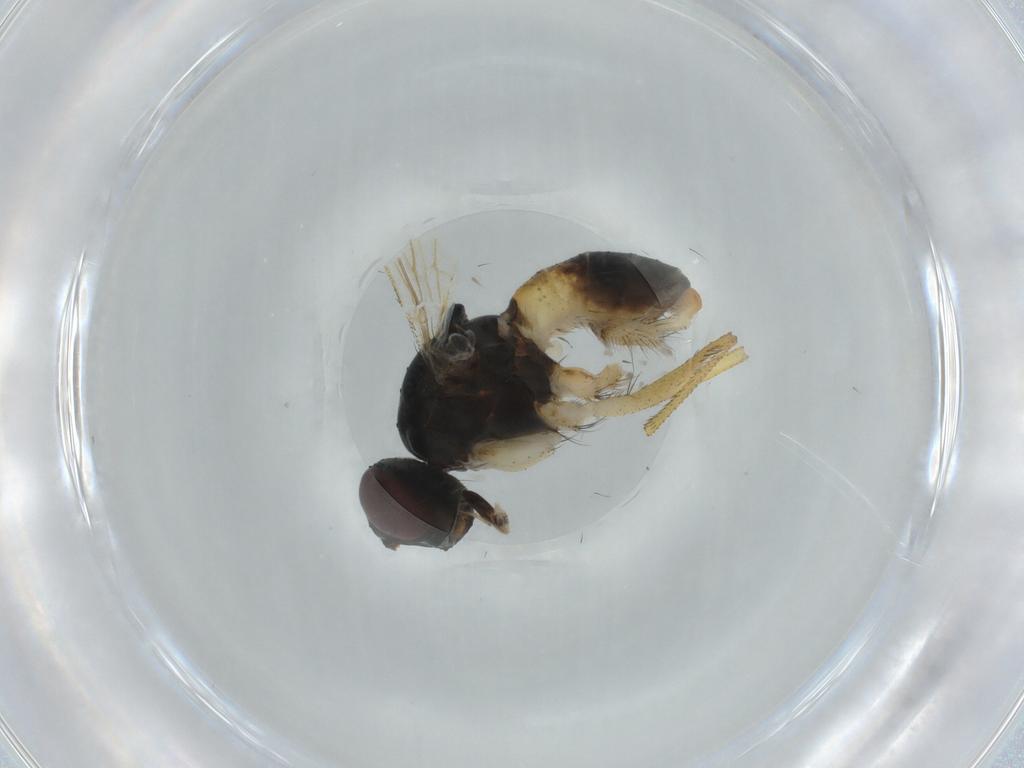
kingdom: Animalia
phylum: Arthropoda
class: Insecta
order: Diptera
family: Muscidae
